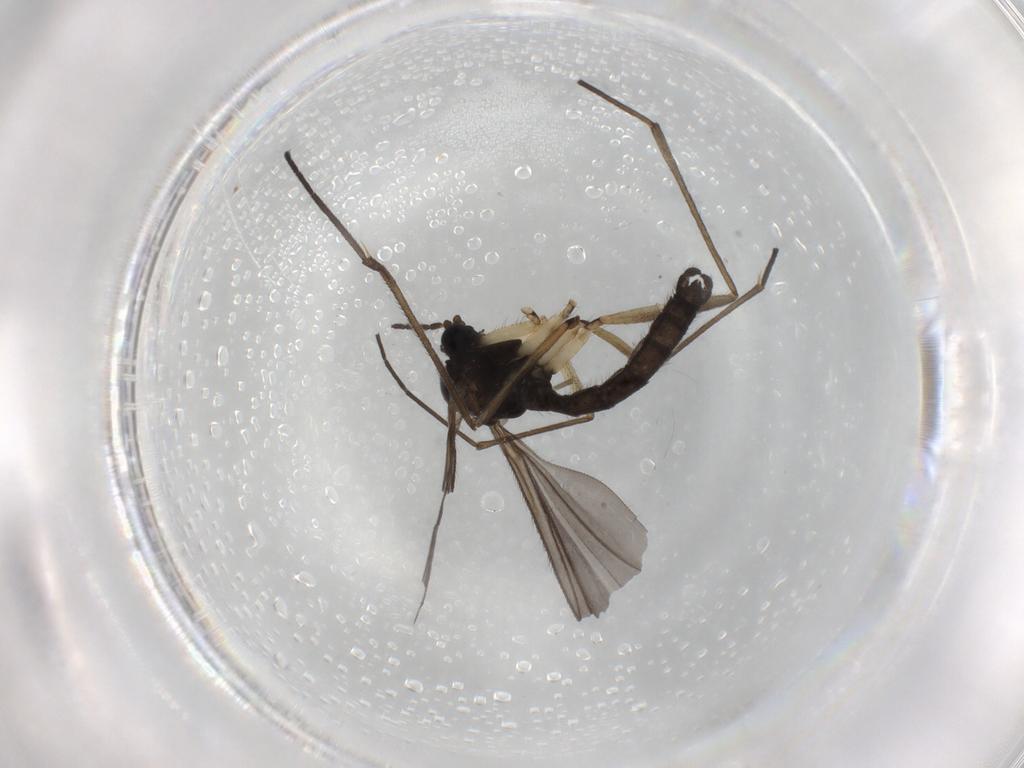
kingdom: Animalia
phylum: Arthropoda
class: Insecta
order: Diptera
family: Sciaridae
